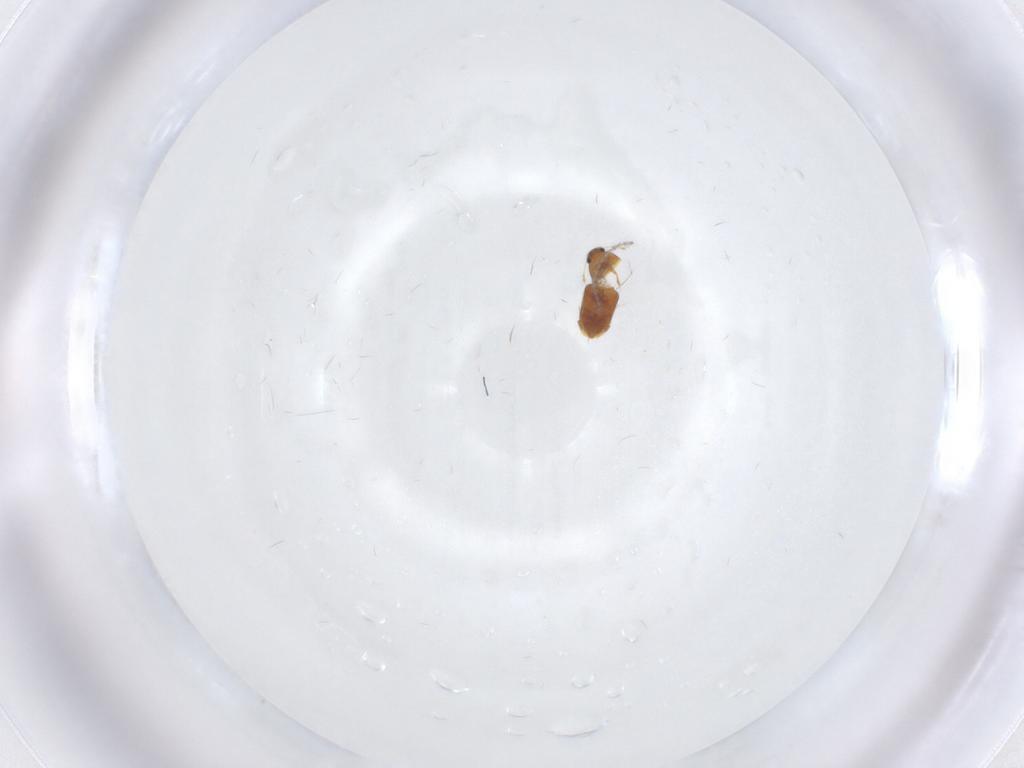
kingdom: Animalia
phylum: Arthropoda
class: Insecta
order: Coleoptera
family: Ptiliidae
